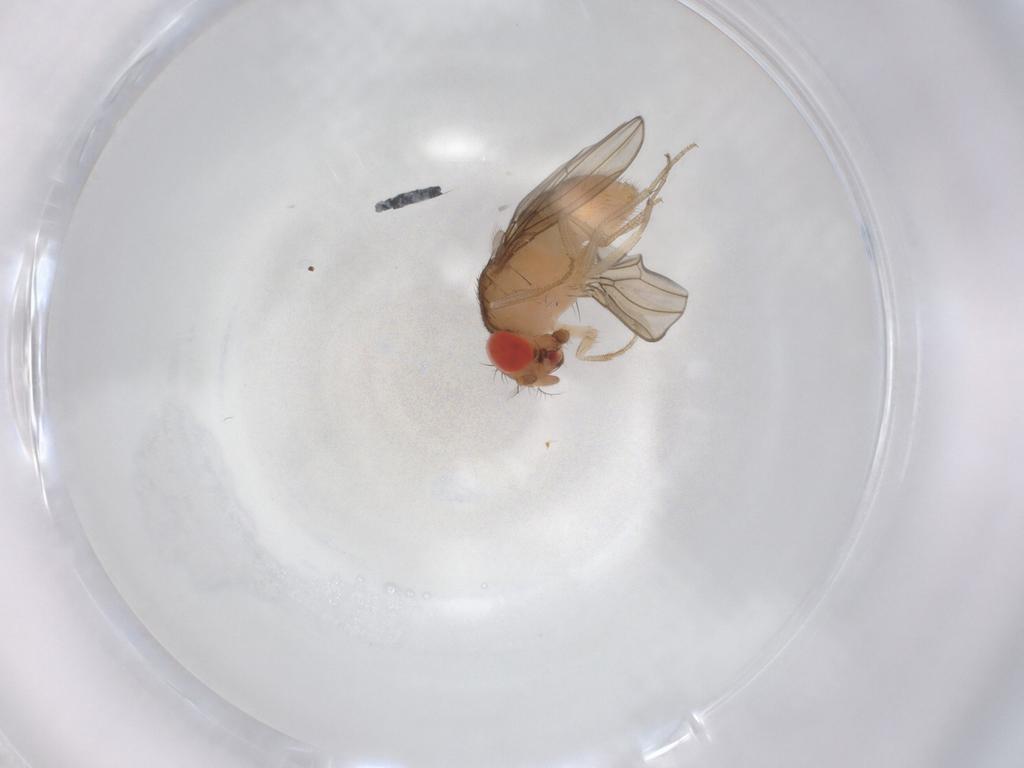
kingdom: Animalia
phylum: Arthropoda
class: Insecta
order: Diptera
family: Drosophilidae
